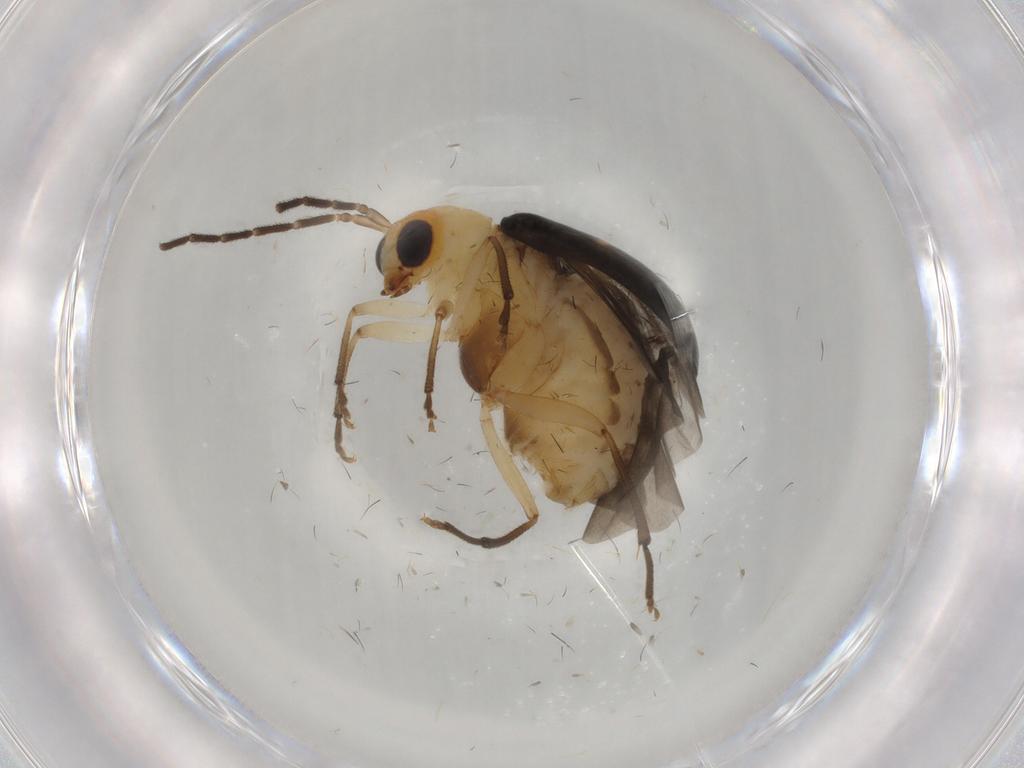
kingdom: Animalia
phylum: Arthropoda
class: Insecta
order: Coleoptera
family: Chrysomelidae
